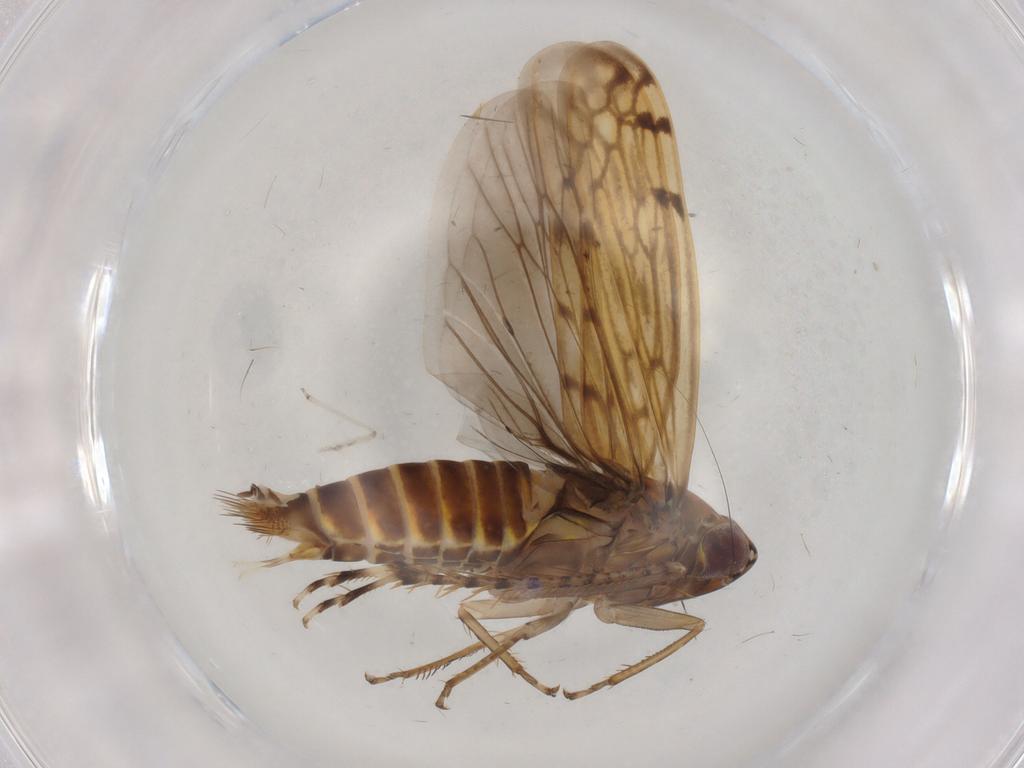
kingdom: Animalia
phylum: Arthropoda
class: Insecta
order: Hemiptera
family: Cicadellidae
